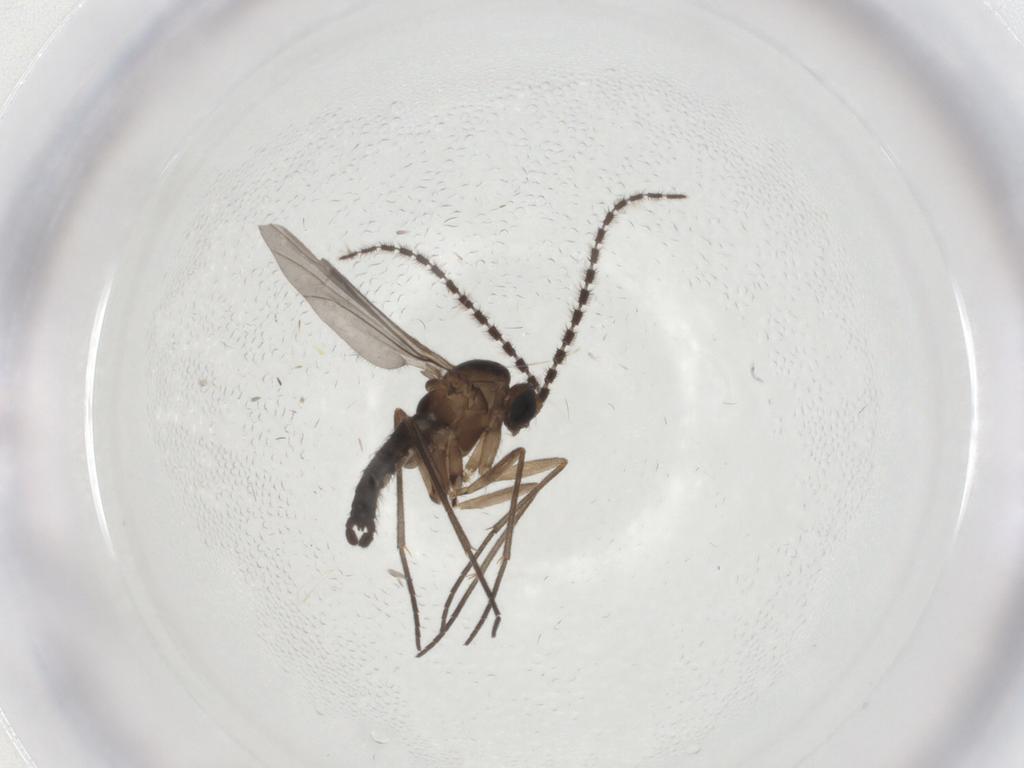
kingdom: Animalia
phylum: Arthropoda
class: Insecta
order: Diptera
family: Sciaridae
